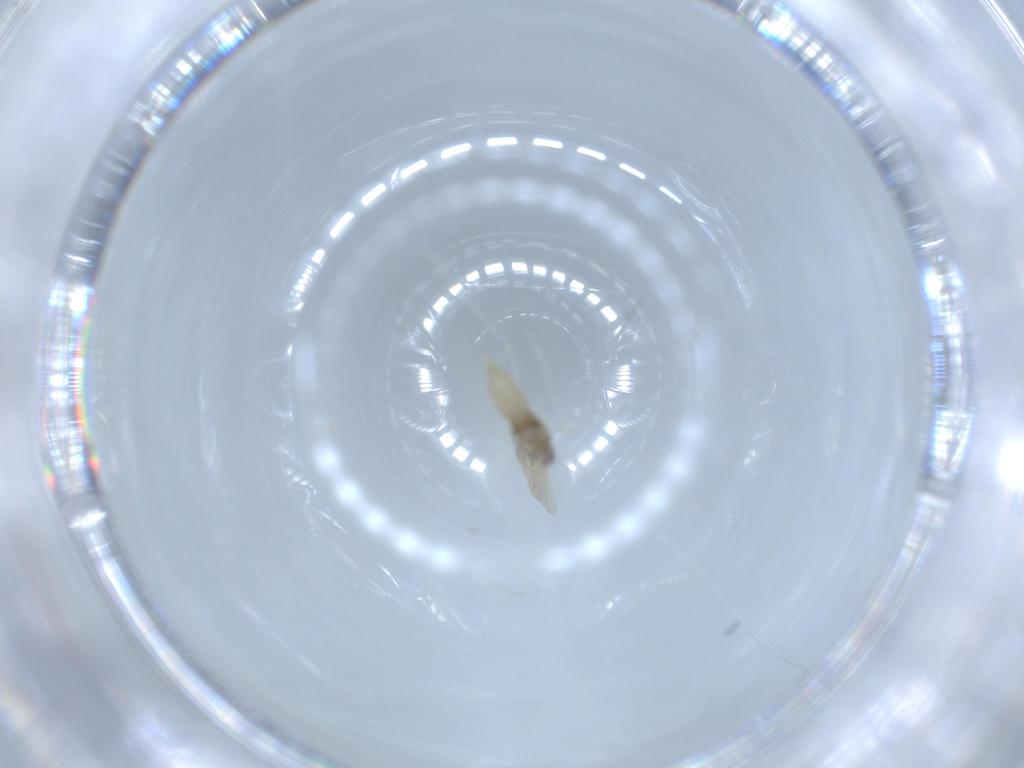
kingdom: Animalia
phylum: Arthropoda
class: Insecta
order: Diptera
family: Cecidomyiidae
